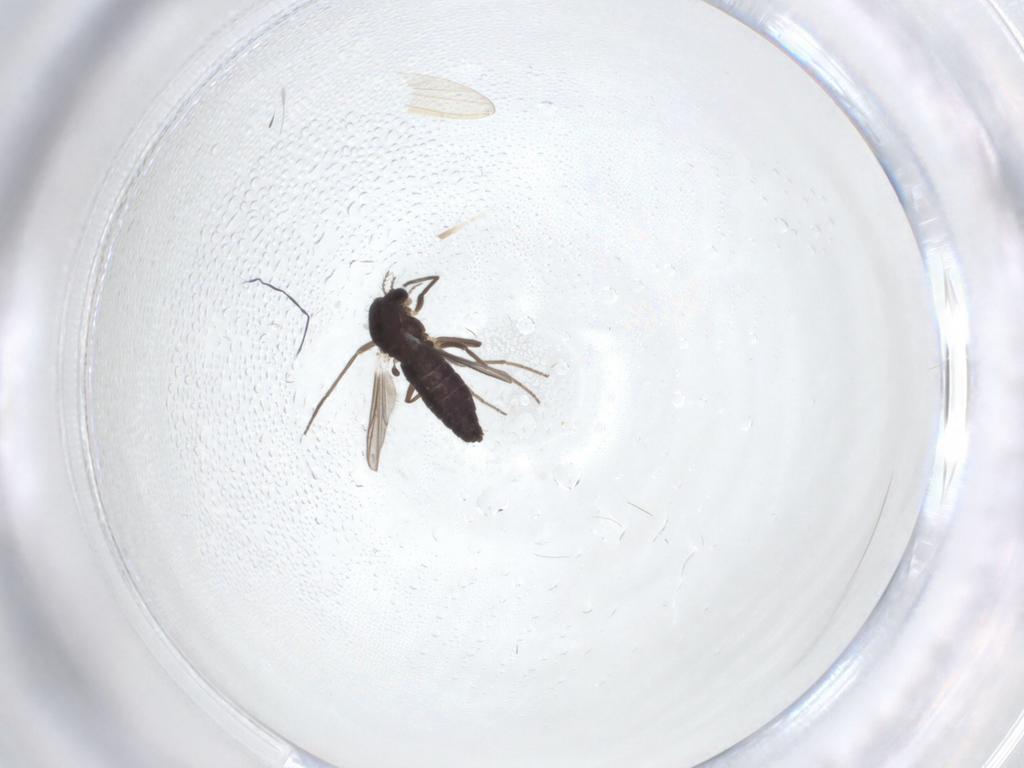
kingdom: Animalia
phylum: Arthropoda
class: Insecta
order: Diptera
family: Chironomidae
